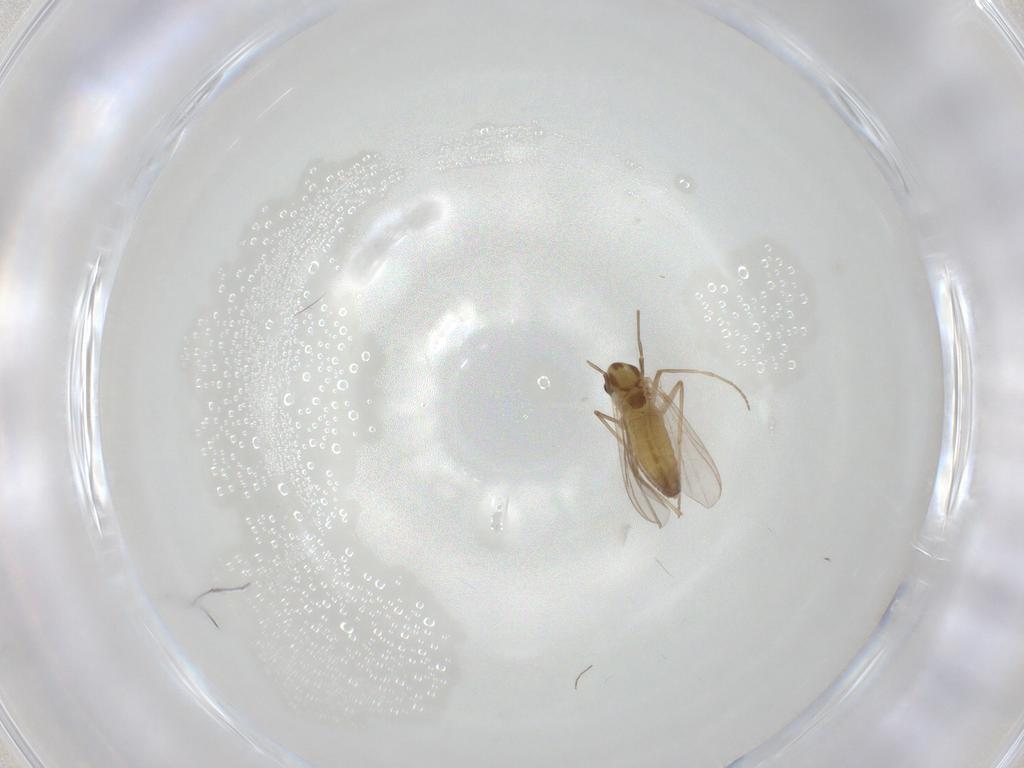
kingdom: Animalia
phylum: Arthropoda
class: Insecta
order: Diptera
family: Chironomidae
